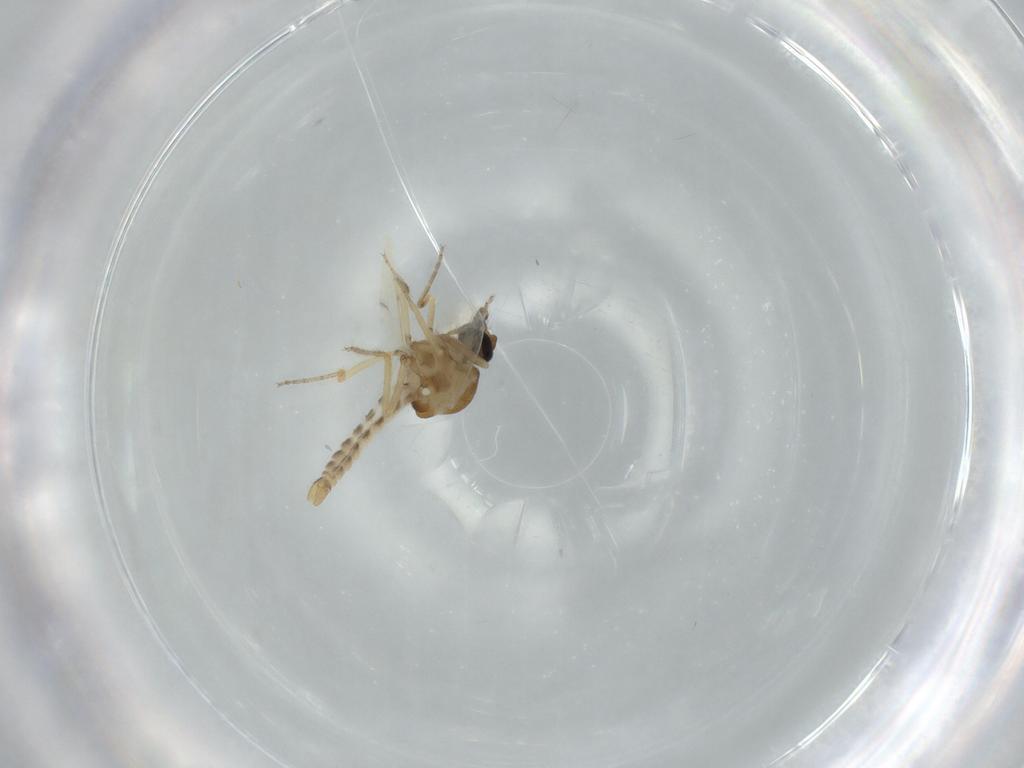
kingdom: Animalia
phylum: Arthropoda
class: Insecta
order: Diptera
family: Ceratopogonidae
